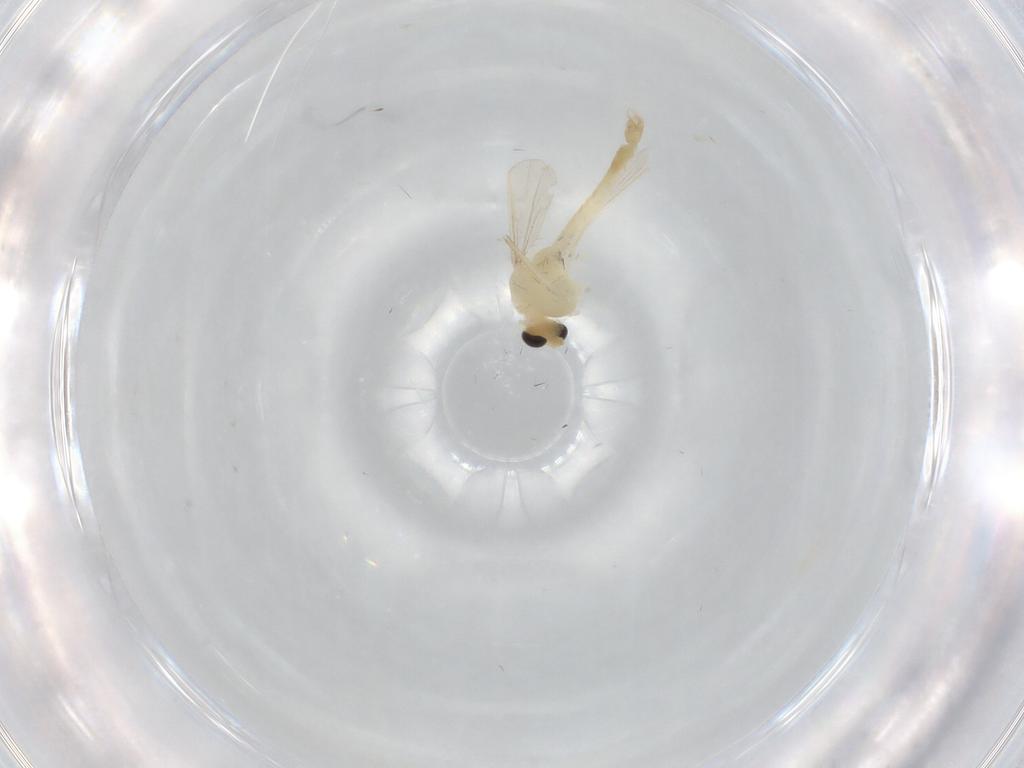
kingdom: Animalia
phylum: Arthropoda
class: Insecta
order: Diptera
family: Chironomidae
